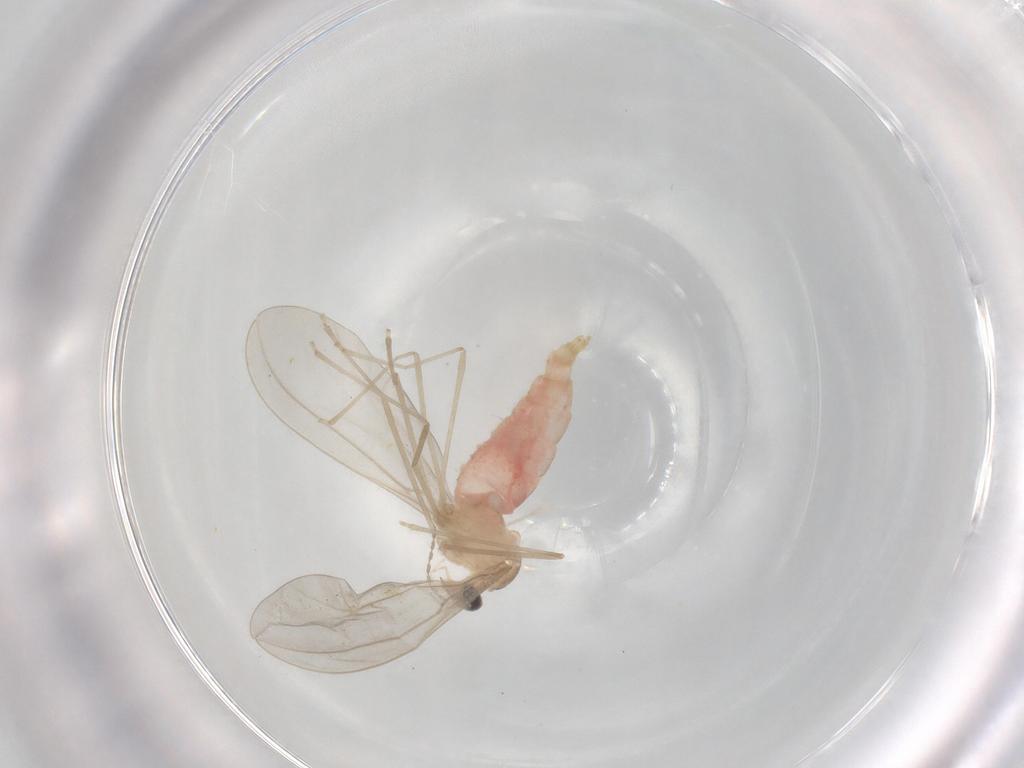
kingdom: Animalia
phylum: Arthropoda
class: Insecta
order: Diptera
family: Cecidomyiidae
